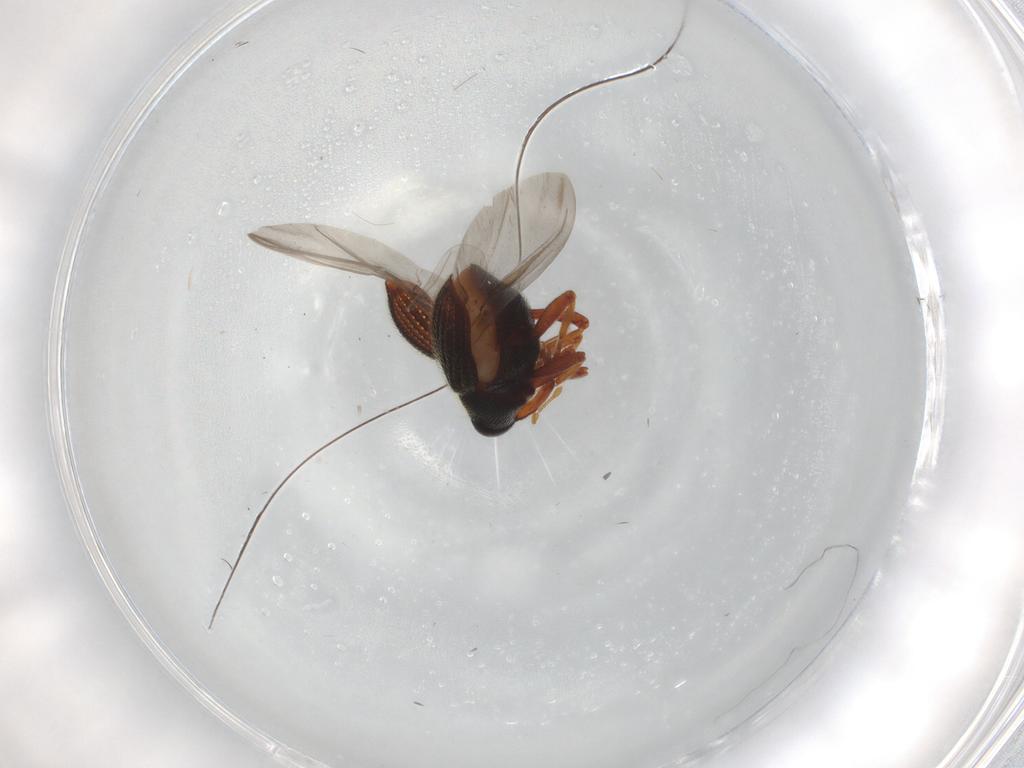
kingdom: Animalia
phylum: Arthropoda
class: Insecta
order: Coleoptera
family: Curculionidae
